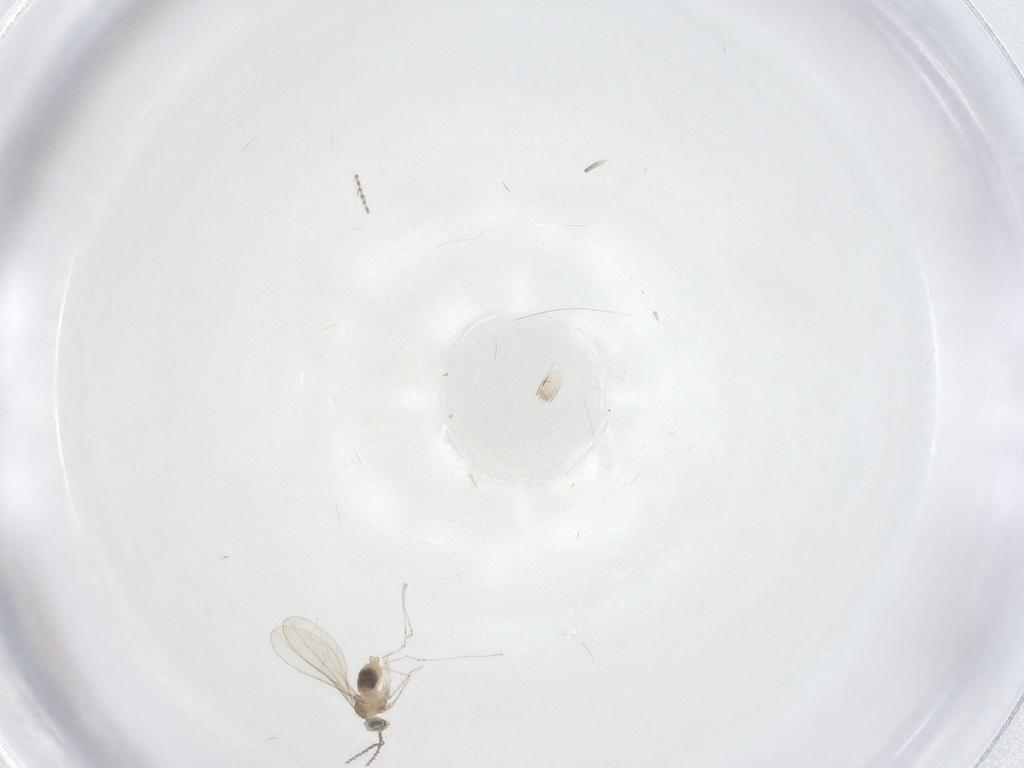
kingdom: Animalia
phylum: Arthropoda
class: Insecta
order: Diptera
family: Cecidomyiidae
